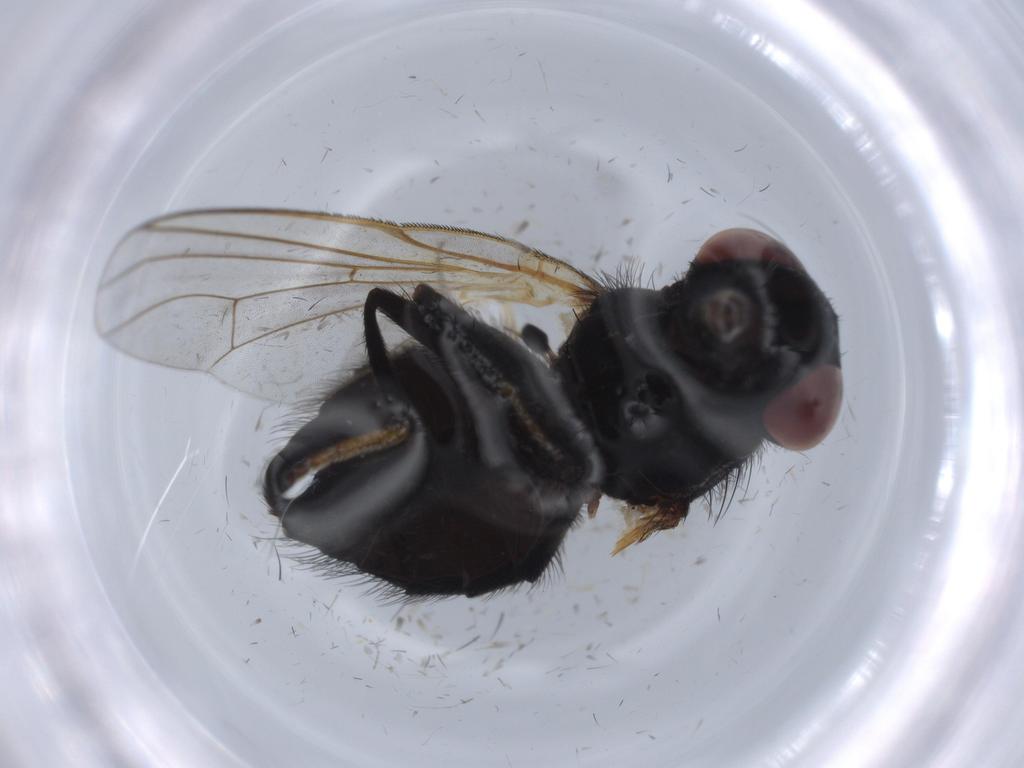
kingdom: Animalia
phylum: Arthropoda
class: Insecta
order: Diptera
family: Chironomidae
